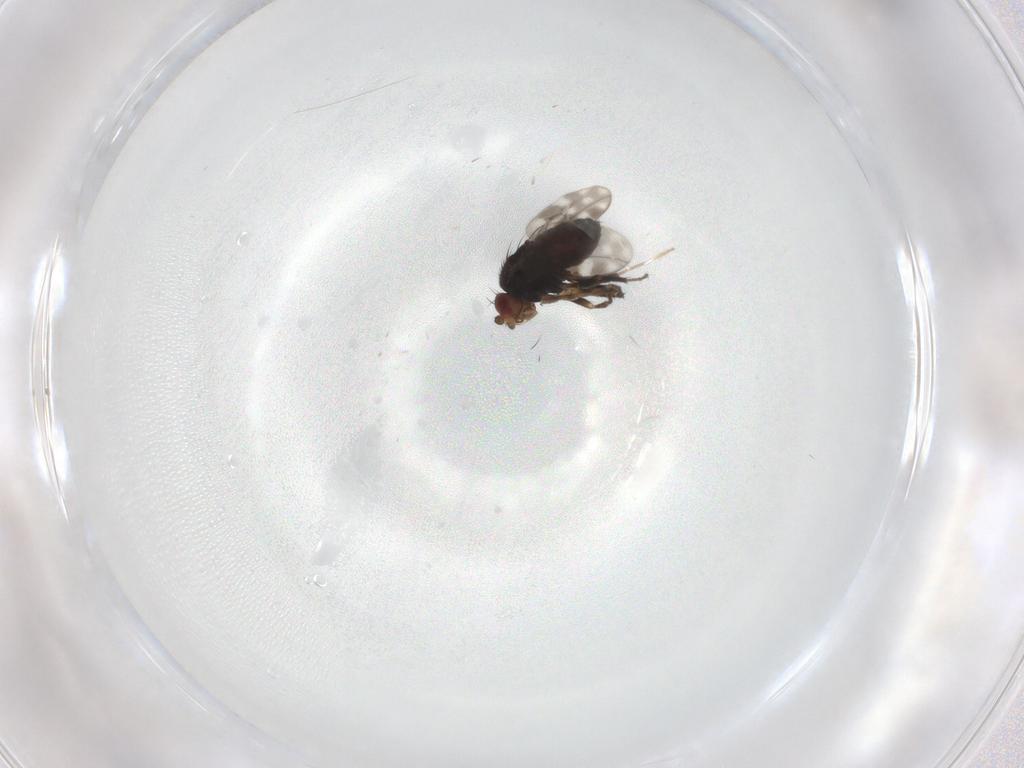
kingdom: Animalia
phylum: Arthropoda
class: Insecta
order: Diptera
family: Sphaeroceridae
